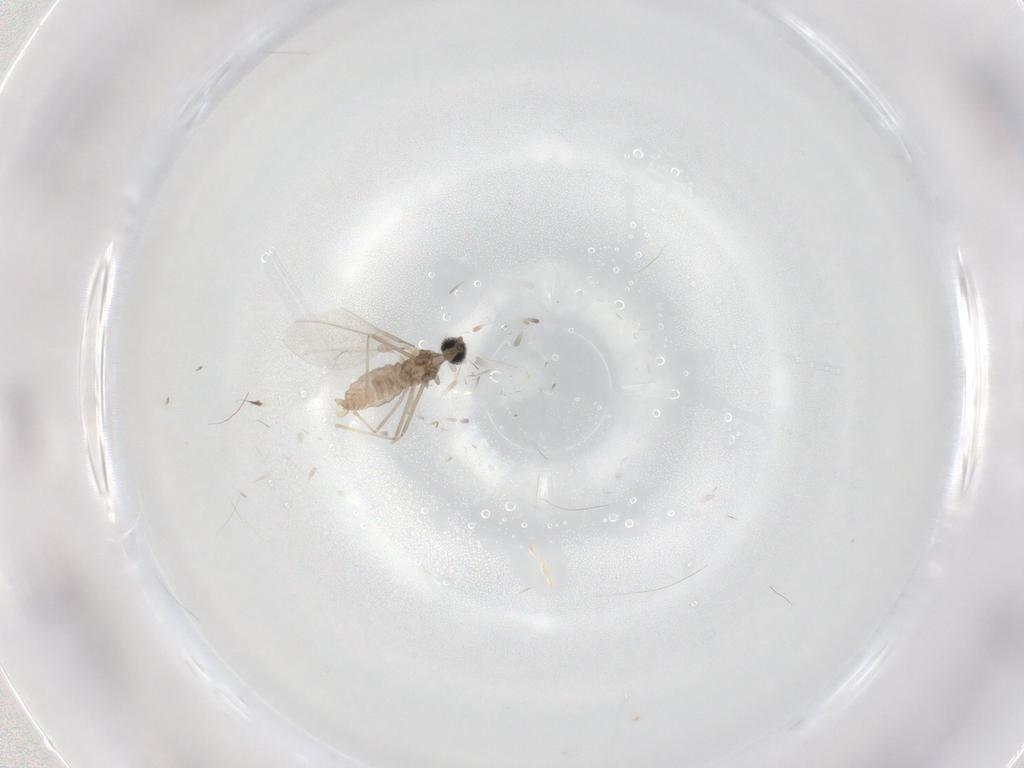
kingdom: Animalia
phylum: Arthropoda
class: Insecta
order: Diptera
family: Cecidomyiidae
